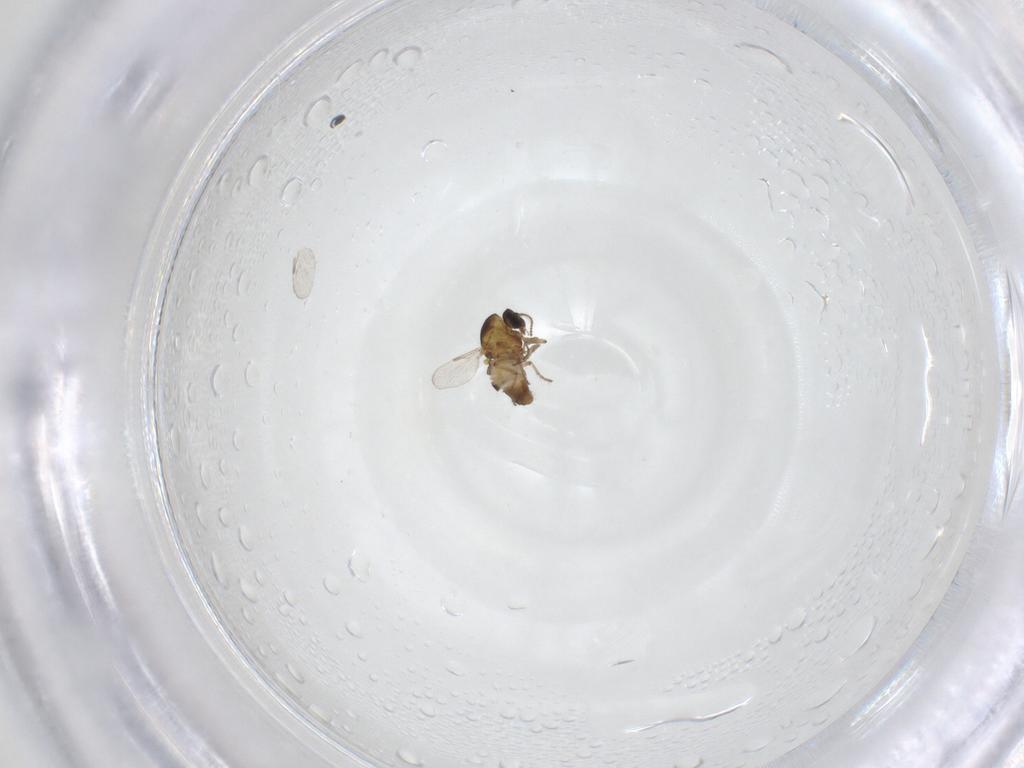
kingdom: Animalia
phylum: Arthropoda
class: Insecta
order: Diptera
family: Ceratopogonidae
